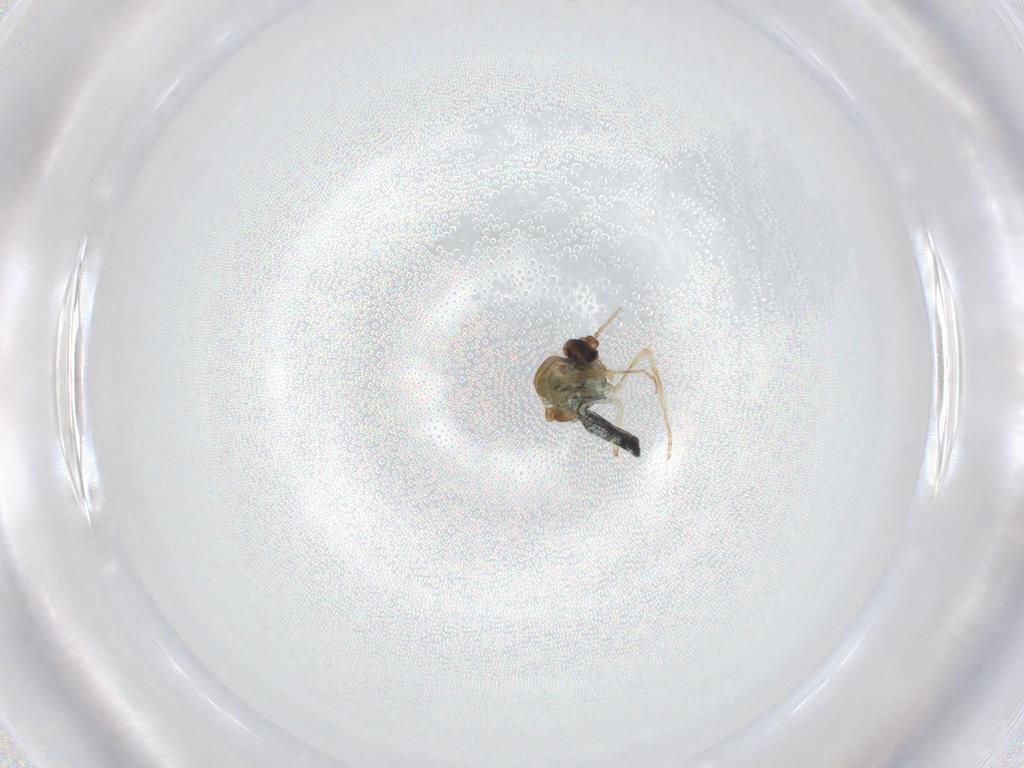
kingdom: Animalia
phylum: Arthropoda
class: Insecta
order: Diptera
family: Ceratopogonidae
